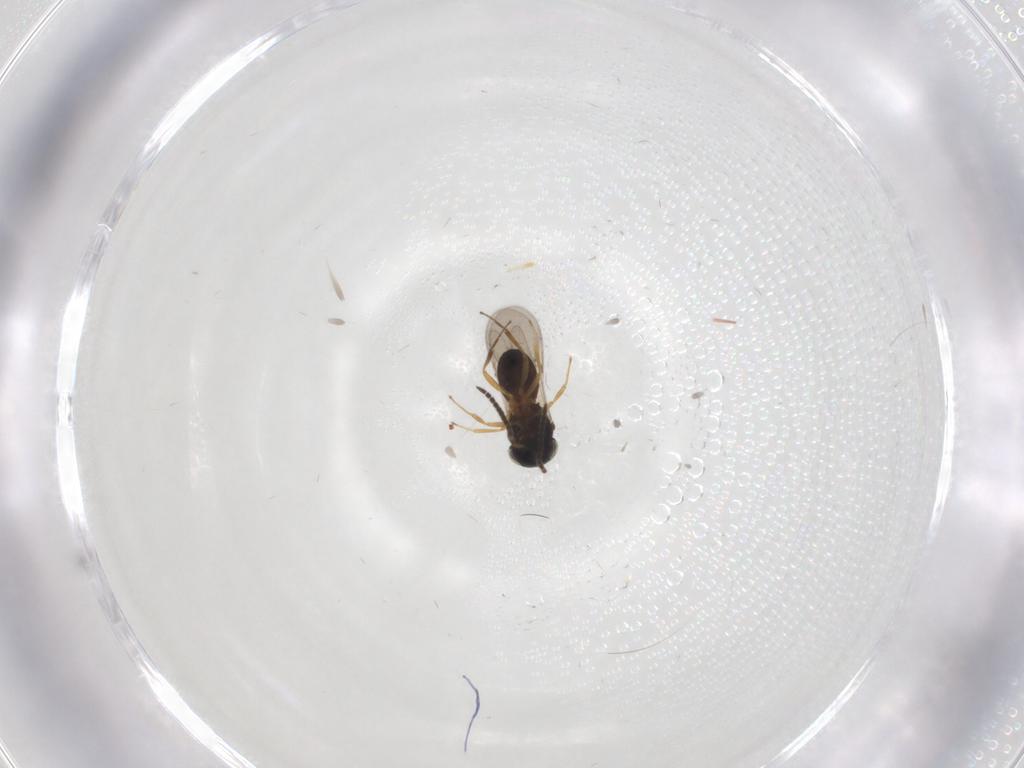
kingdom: Animalia
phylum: Arthropoda
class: Insecta
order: Hymenoptera
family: Scelionidae
